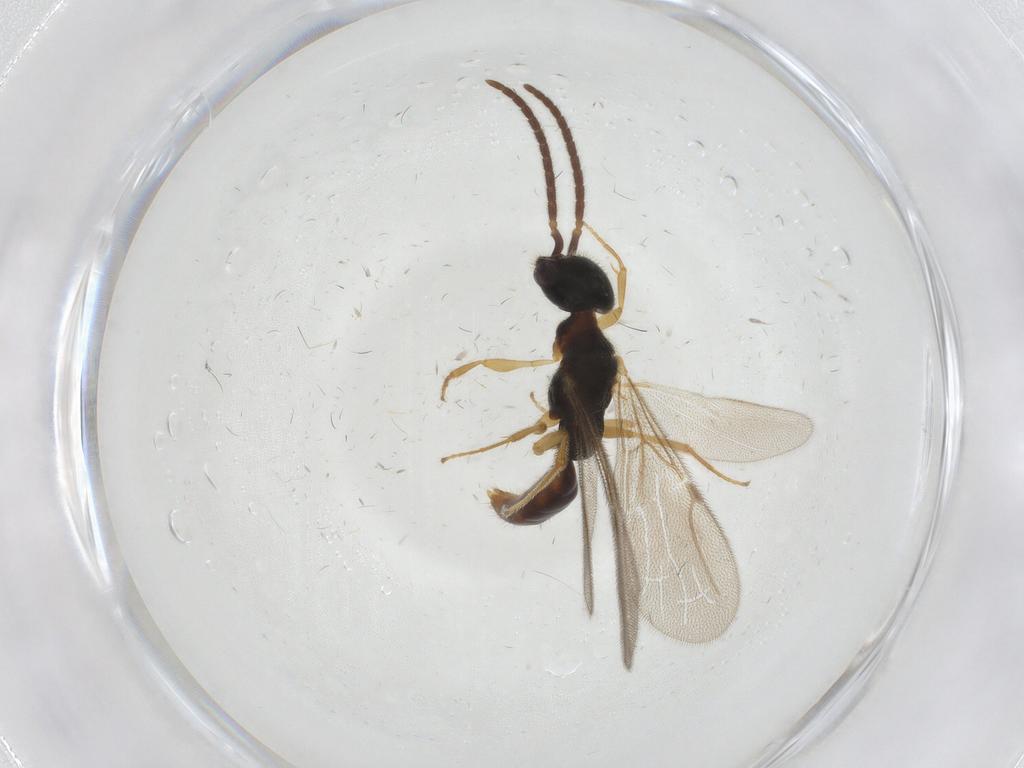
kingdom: Animalia
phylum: Arthropoda
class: Insecta
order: Hymenoptera
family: Bethylidae
